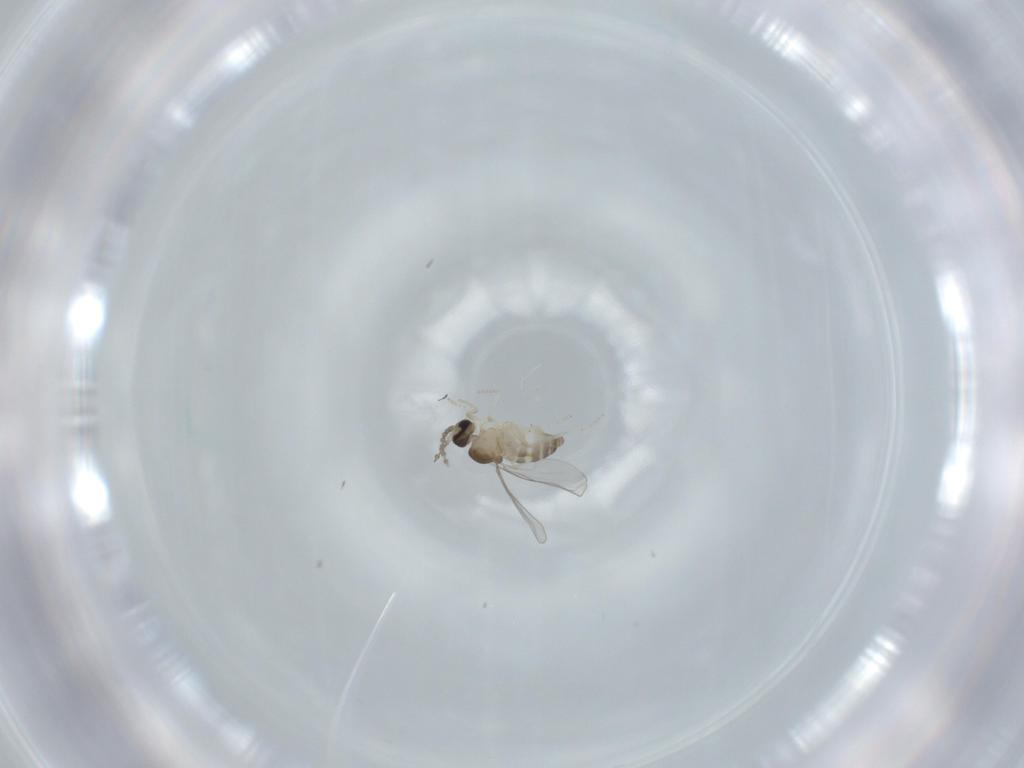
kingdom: Animalia
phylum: Arthropoda
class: Insecta
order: Diptera
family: Cecidomyiidae
